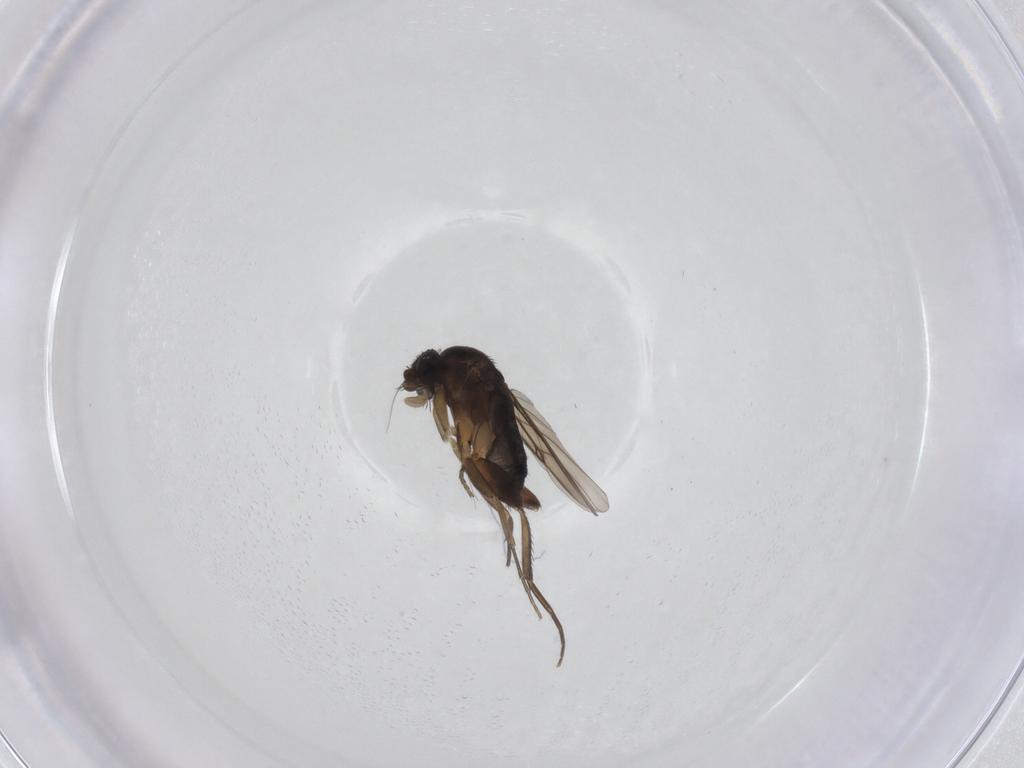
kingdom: Animalia
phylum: Arthropoda
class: Insecta
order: Diptera
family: Phoridae
